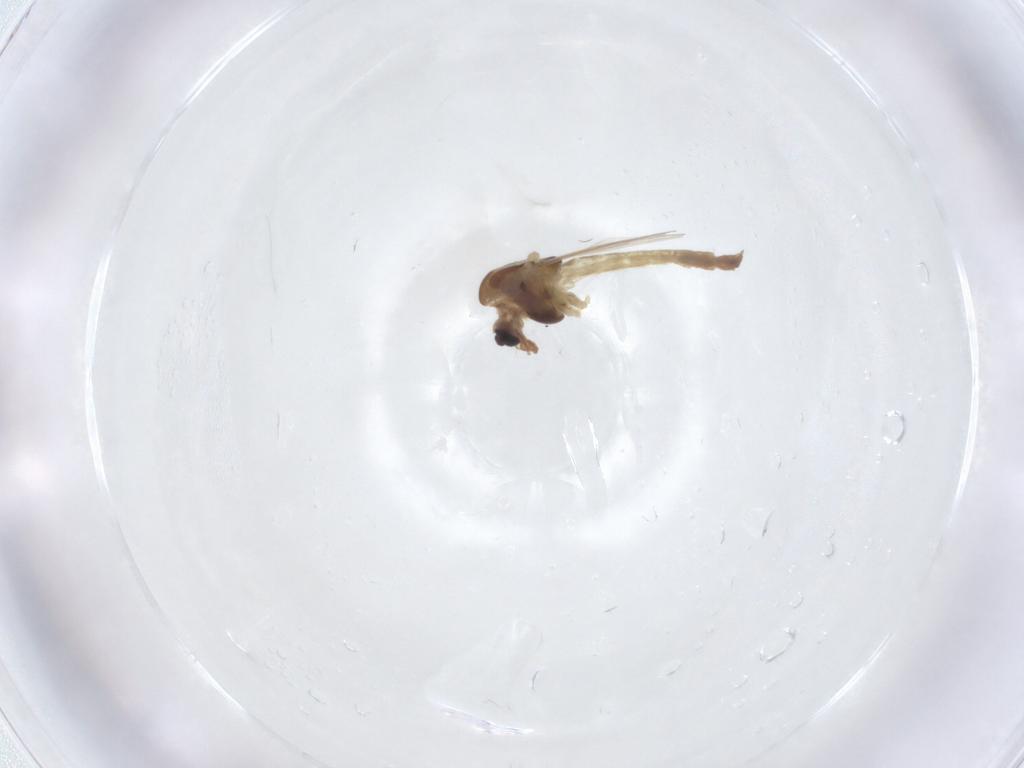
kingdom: Animalia
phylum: Arthropoda
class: Insecta
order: Diptera
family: Chironomidae
